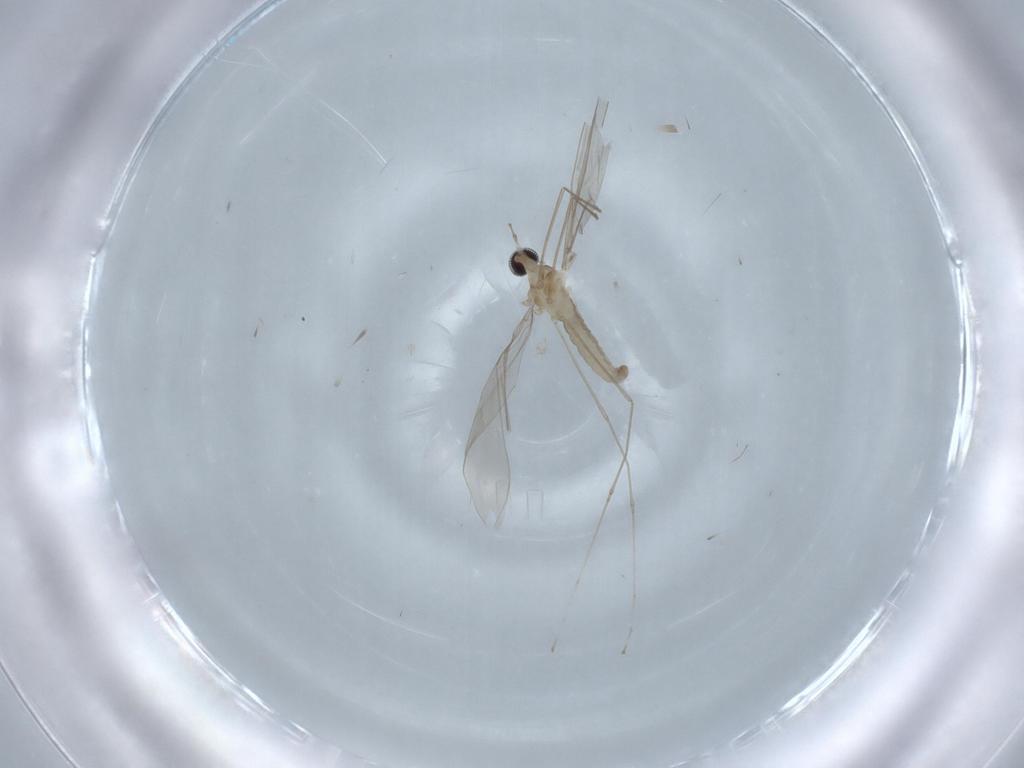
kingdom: Animalia
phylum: Arthropoda
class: Insecta
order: Diptera
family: Cecidomyiidae
